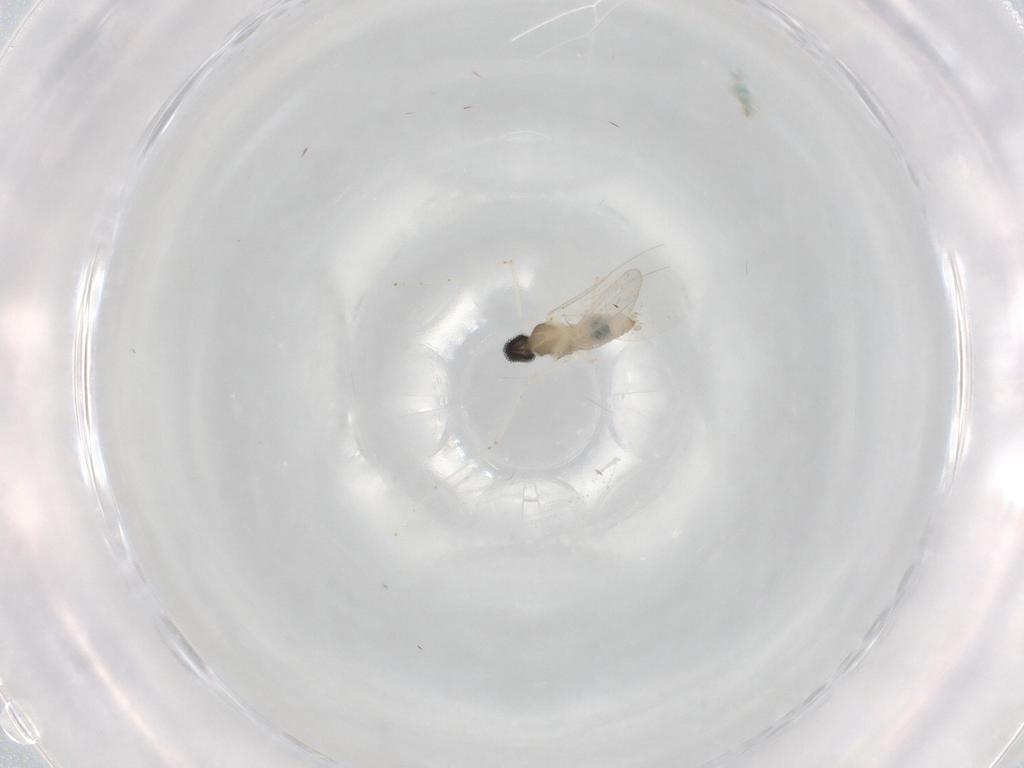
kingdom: Animalia
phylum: Arthropoda
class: Insecta
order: Diptera
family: Cecidomyiidae
